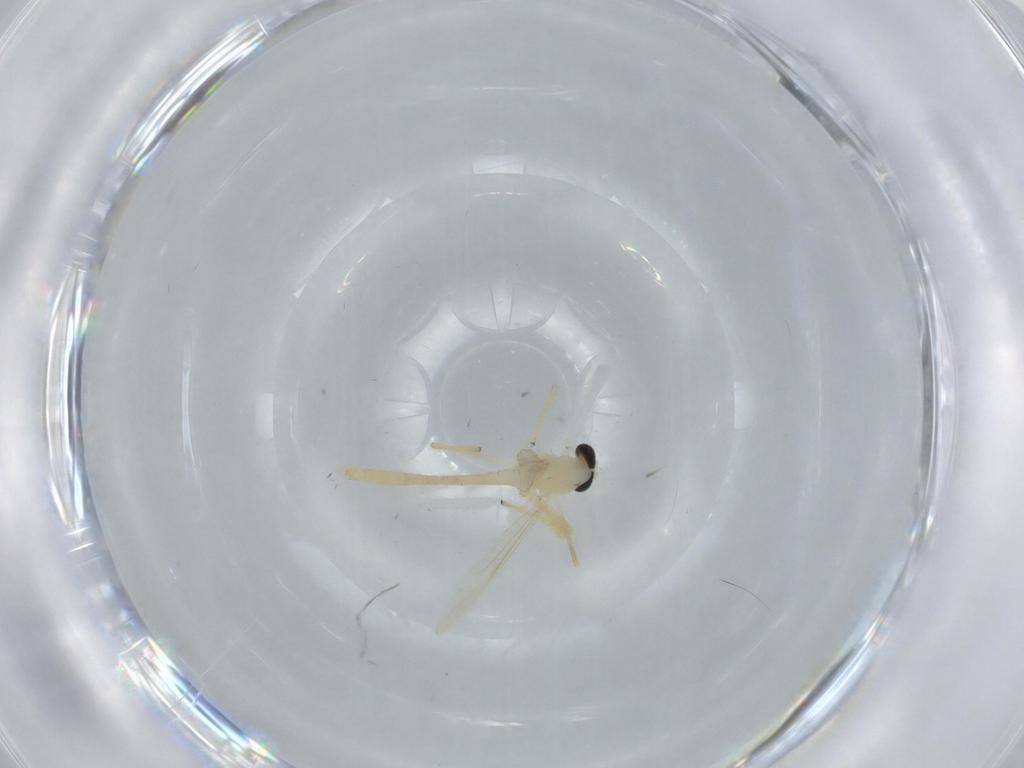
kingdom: Animalia
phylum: Arthropoda
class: Insecta
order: Diptera
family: Chironomidae
